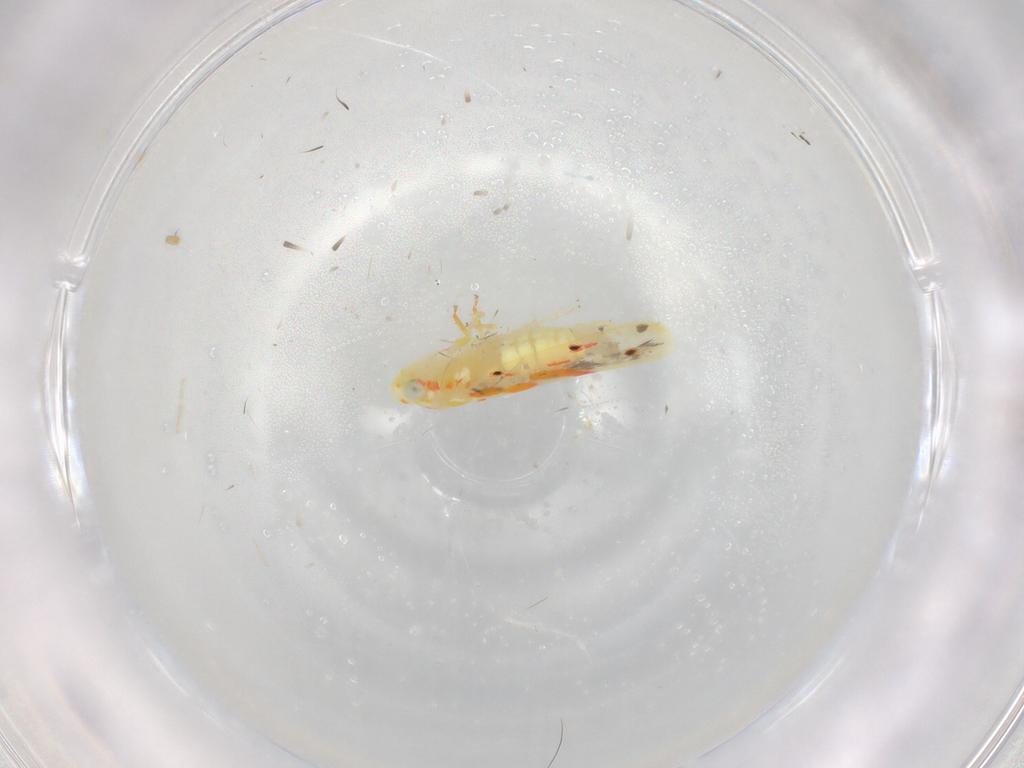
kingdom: Animalia
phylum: Arthropoda
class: Insecta
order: Hemiptera
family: Cicadellidae
